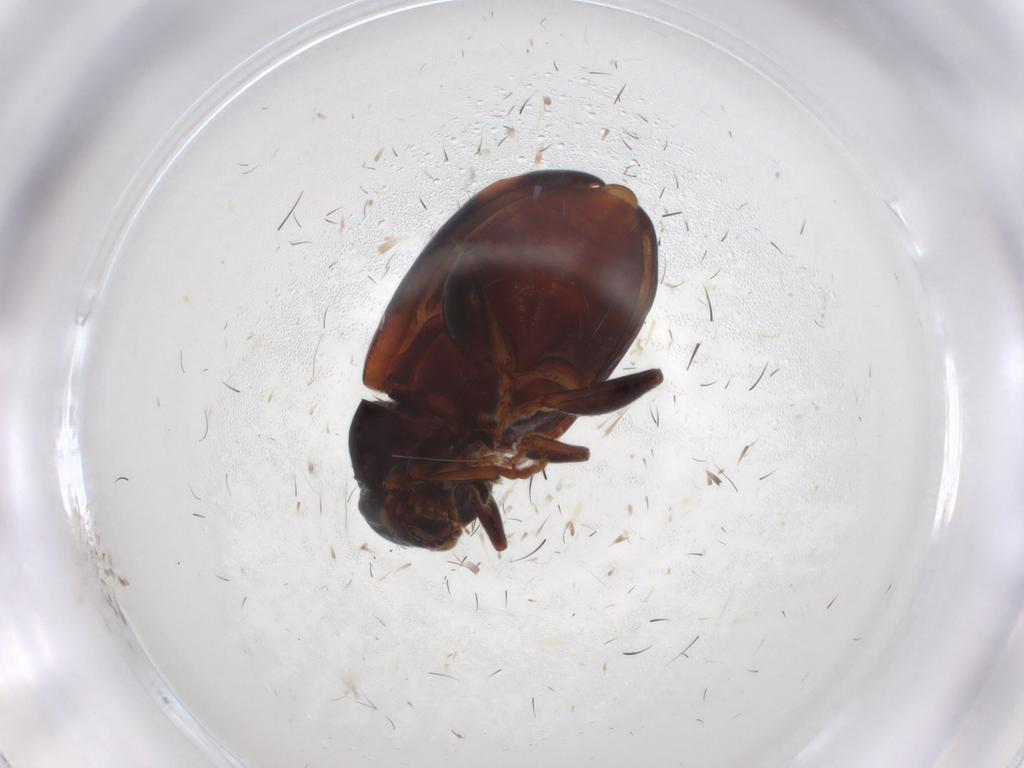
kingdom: Animalia
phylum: Arthropoda
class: Insecta
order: Coleoptera
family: Chrysomelidae
